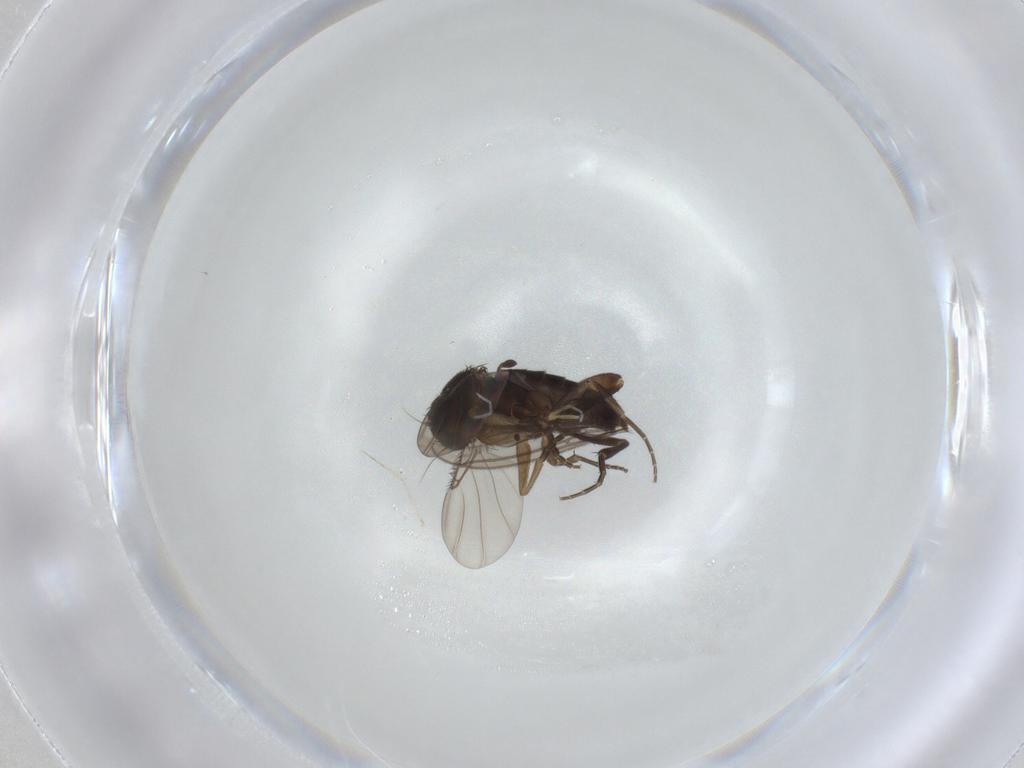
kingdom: Animalia
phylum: Arthropoda
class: Insecta
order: Diptera
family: Phoridae
